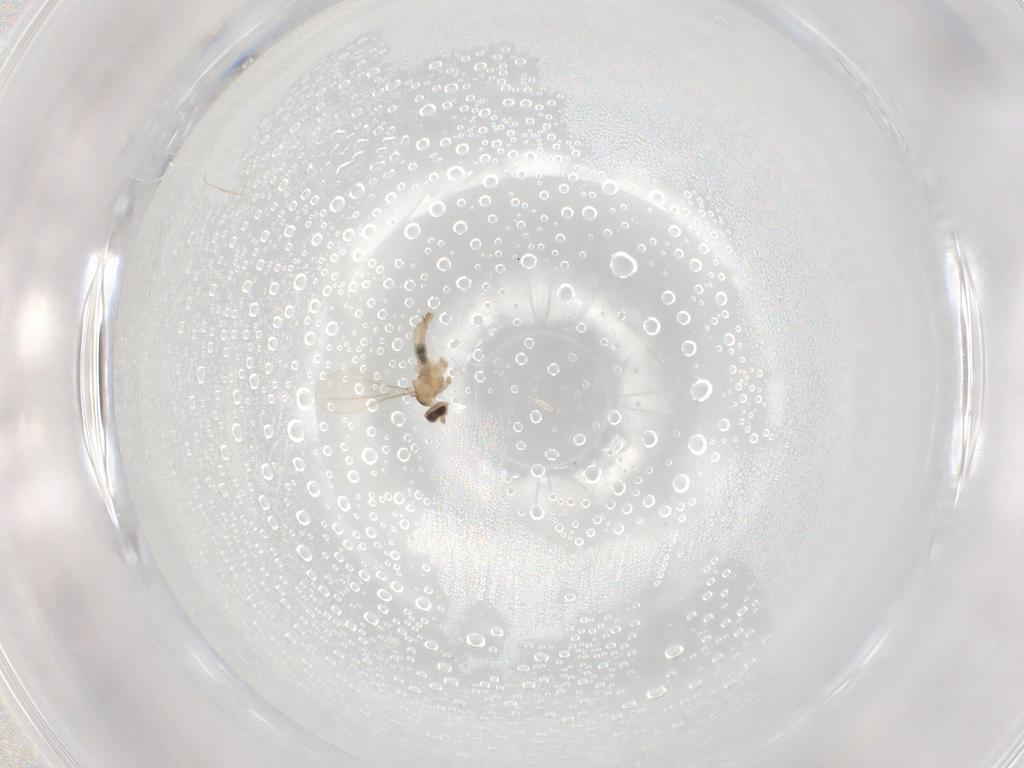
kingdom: Animalia
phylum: Arthropoda
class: Insecta
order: Diptera
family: Cecidomyiidae
